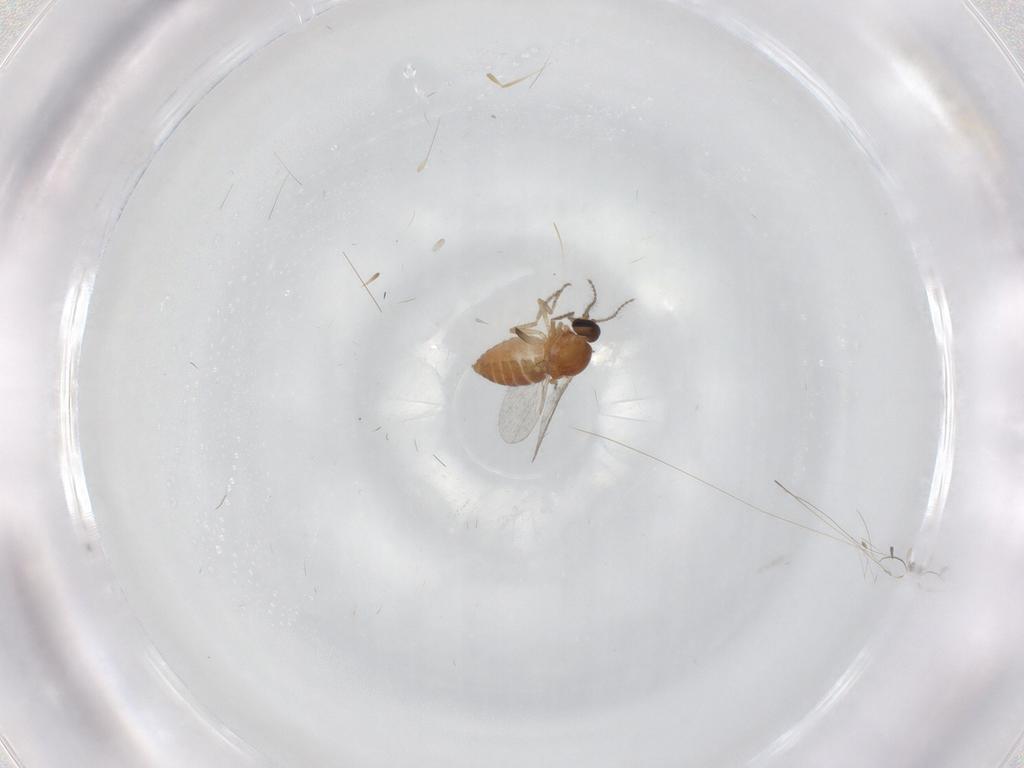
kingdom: Animalia
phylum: Arthropoda
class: Insecta
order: Diptera
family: Ceratopogonidae
